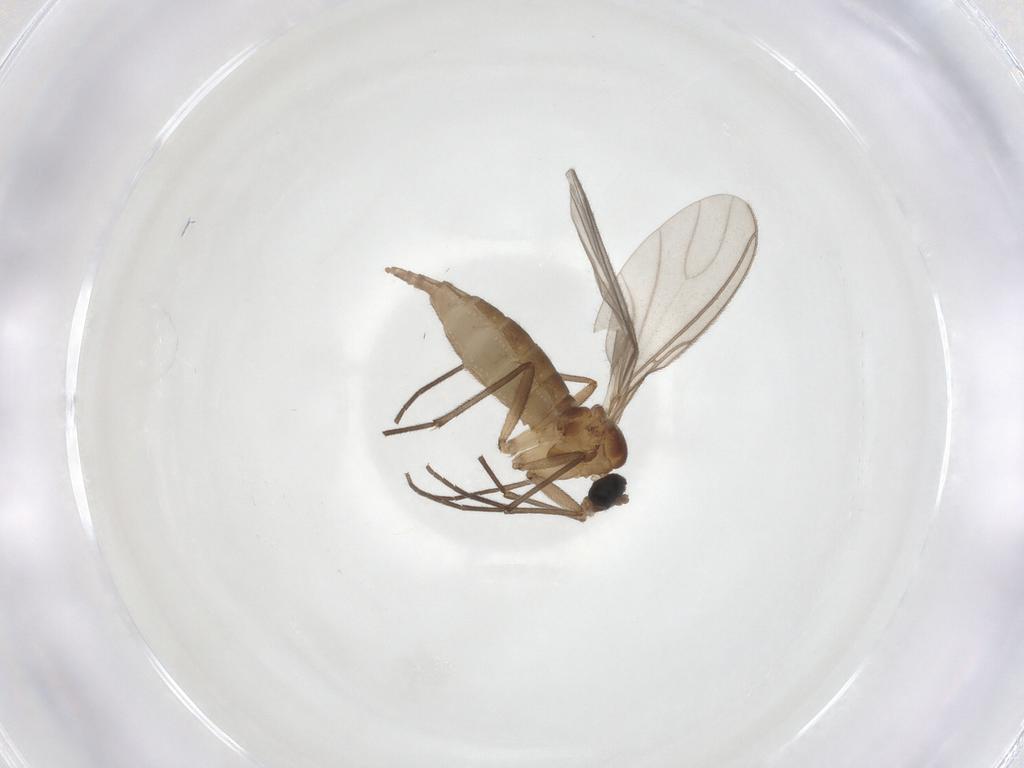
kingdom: Animalia
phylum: Arthropoda
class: Insecta
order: Diptera
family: Sciaridae
